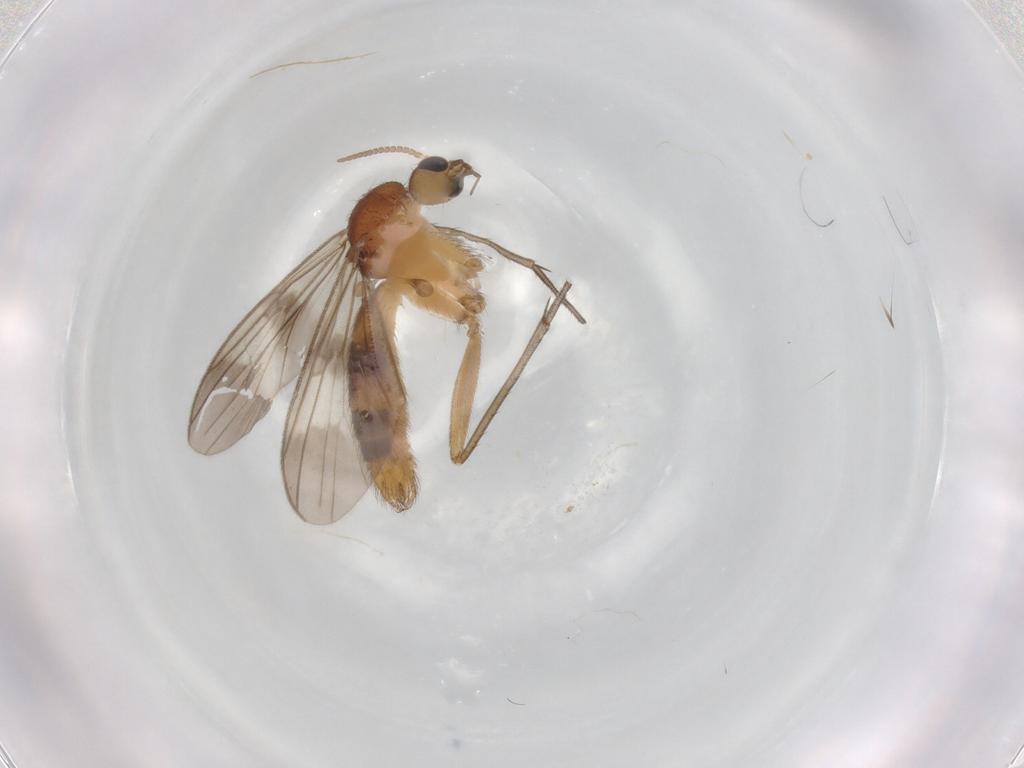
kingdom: Animalia
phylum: Arthropoda
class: Insecta
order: Diptera
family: Mycetophilidae
